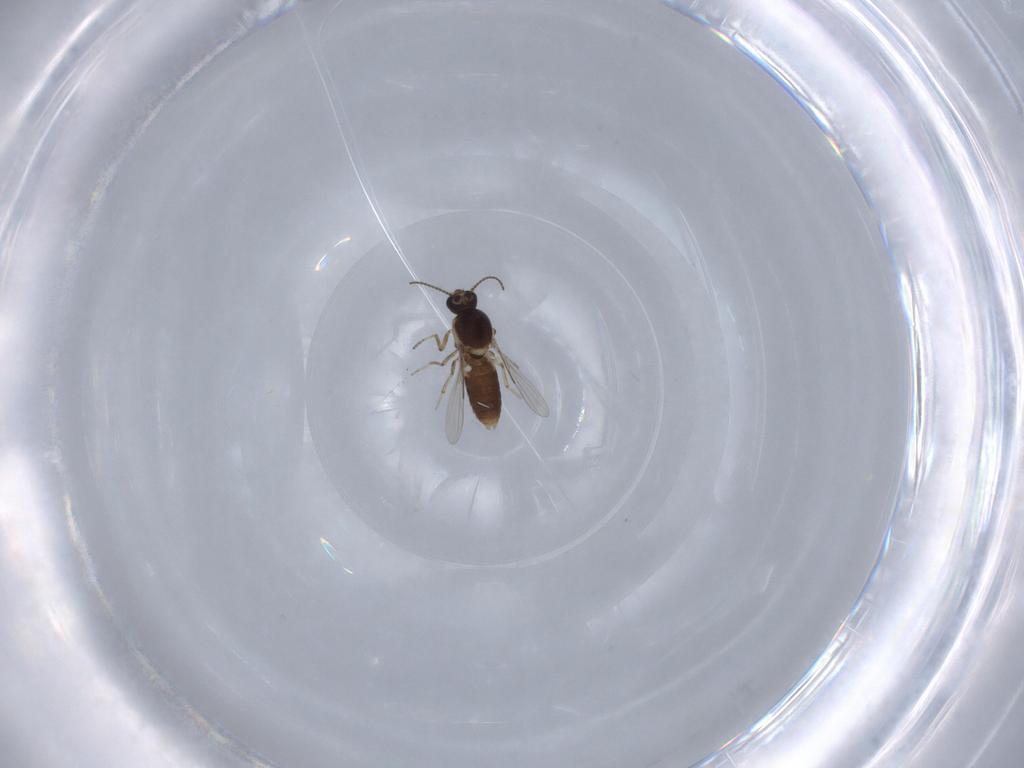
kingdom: Animalia
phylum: Arthropoda
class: Insecta
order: Diptera
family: Ceratopogonidae
